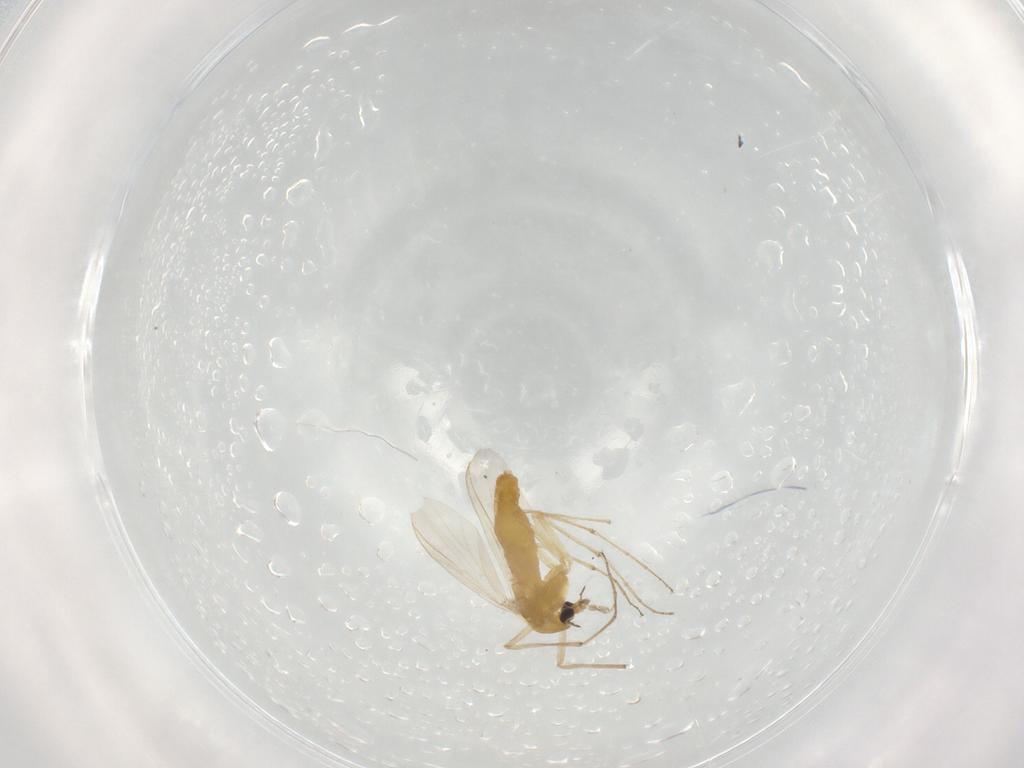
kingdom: Animalia
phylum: Arthropoda
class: Insecta
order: Diptera
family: Chironomidae
